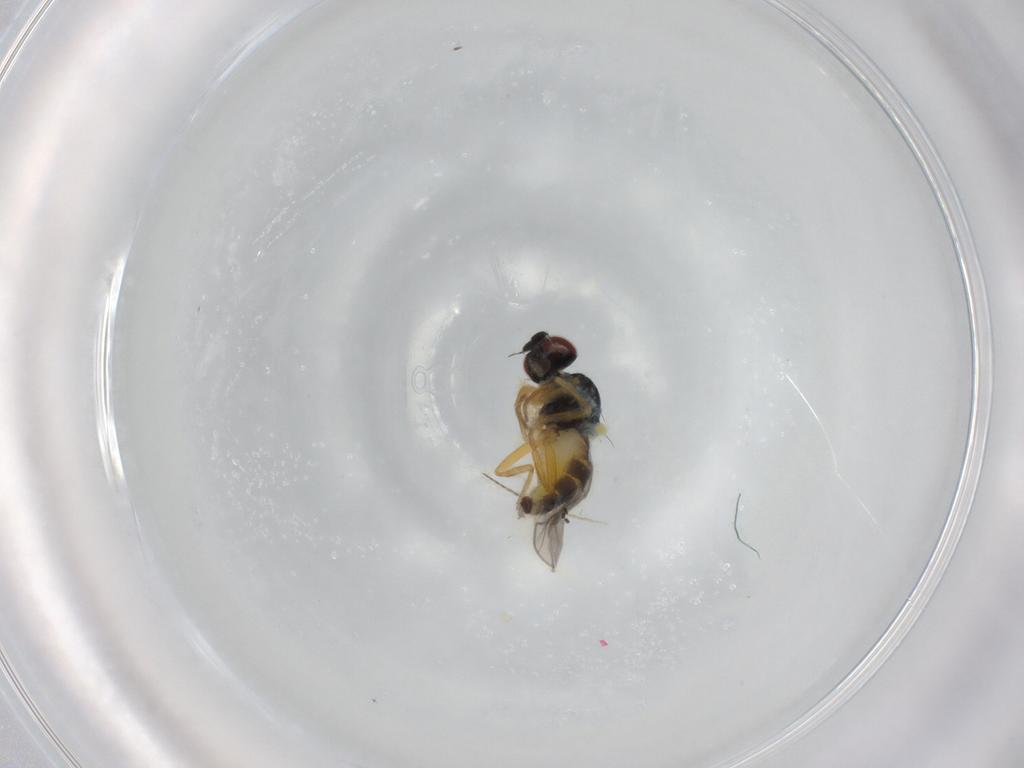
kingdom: Animalia
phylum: Arthropoda
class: Insecta
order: Diptera
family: Chloropidae
